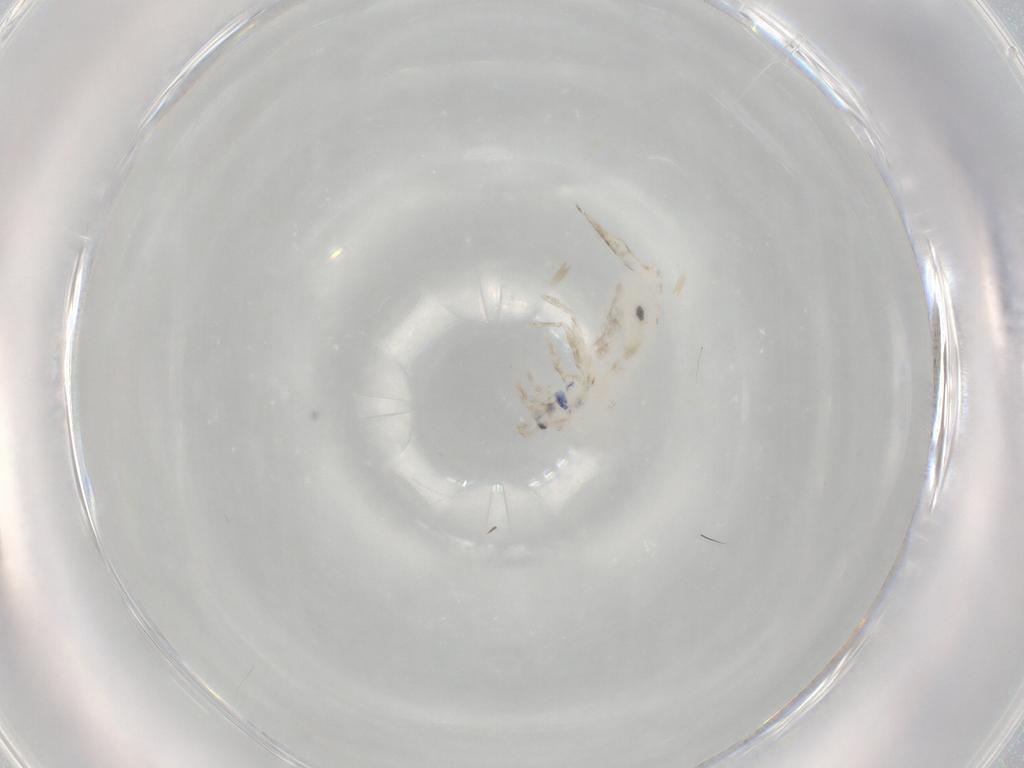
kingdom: Animalia
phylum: Arthropoda
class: Collembola
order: Entomobryomorpha
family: Entomobryidae
